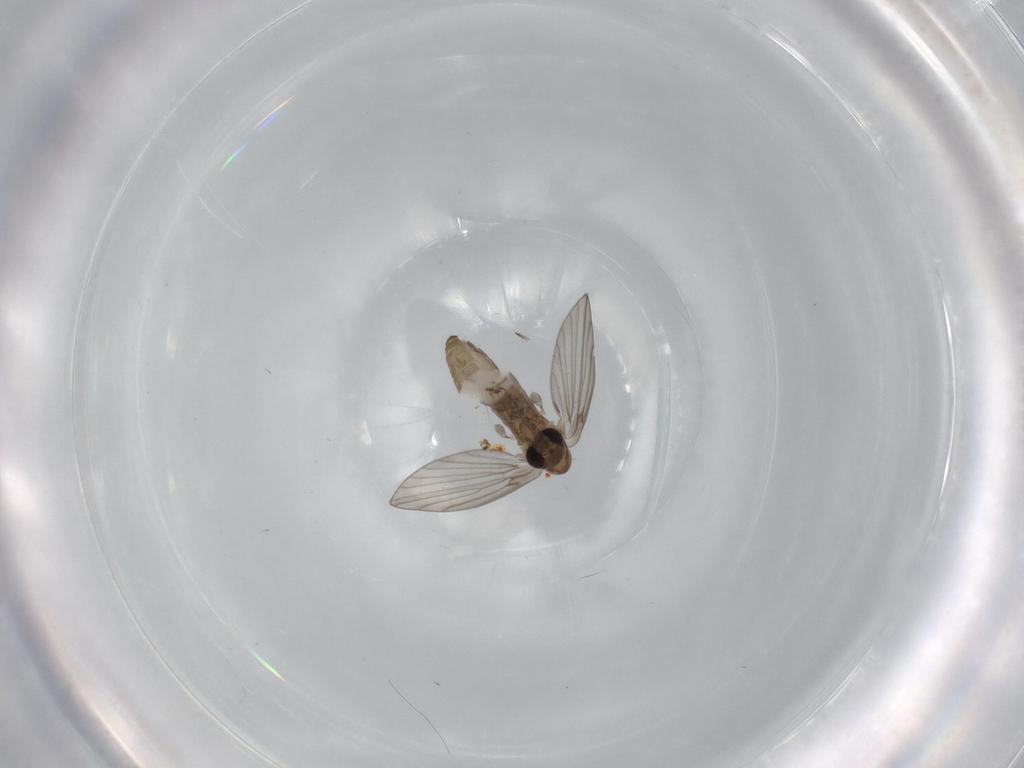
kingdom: Animalia
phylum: Arthropoda
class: Insecta
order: Diptera
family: Psychodidae
